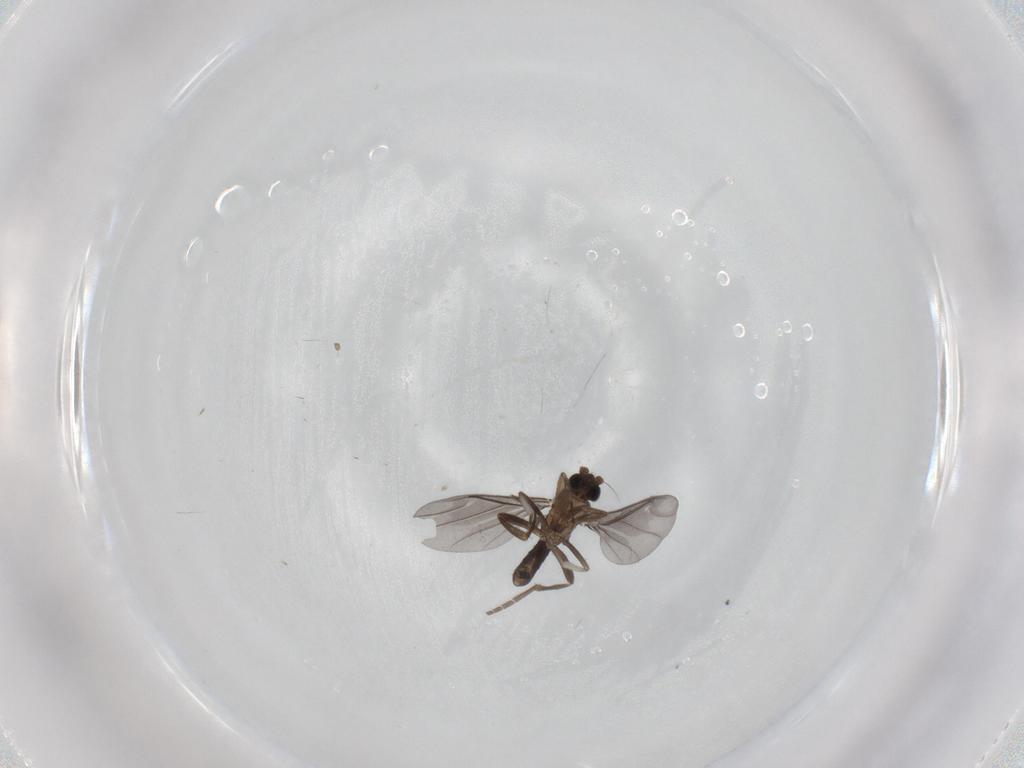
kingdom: Animalia
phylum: Arthropoda
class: Insecta
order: Diptera
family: Phoridae
